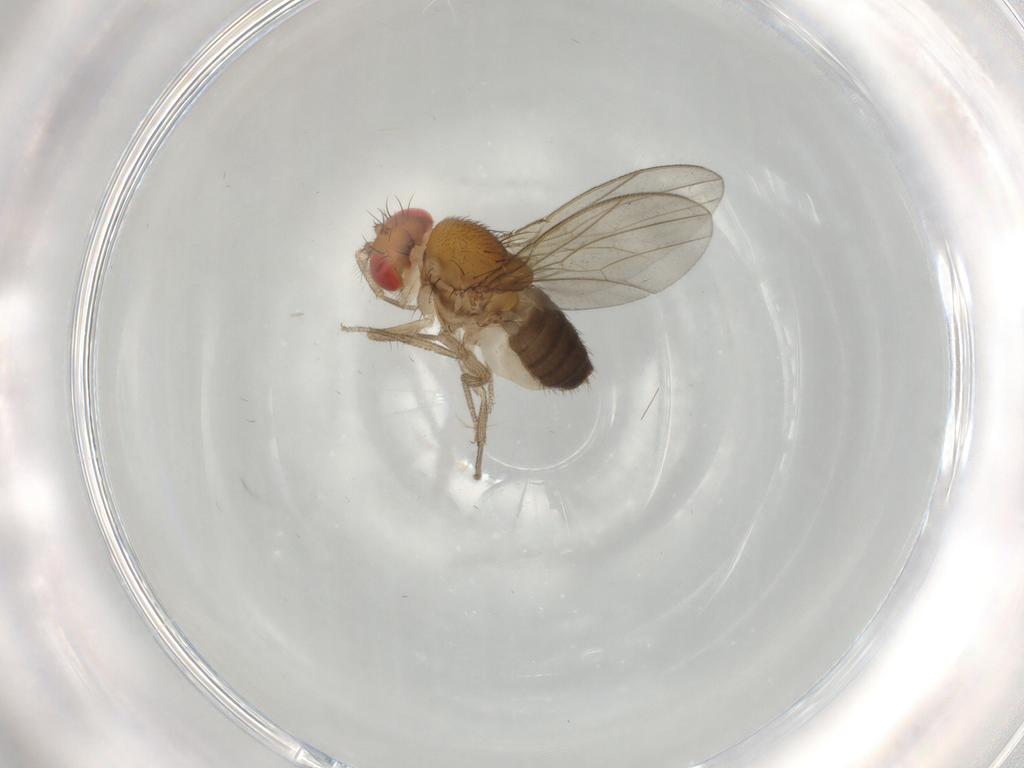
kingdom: Animalia
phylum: Arthropoda
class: Insecta
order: Diptera
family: Drosophilidae
